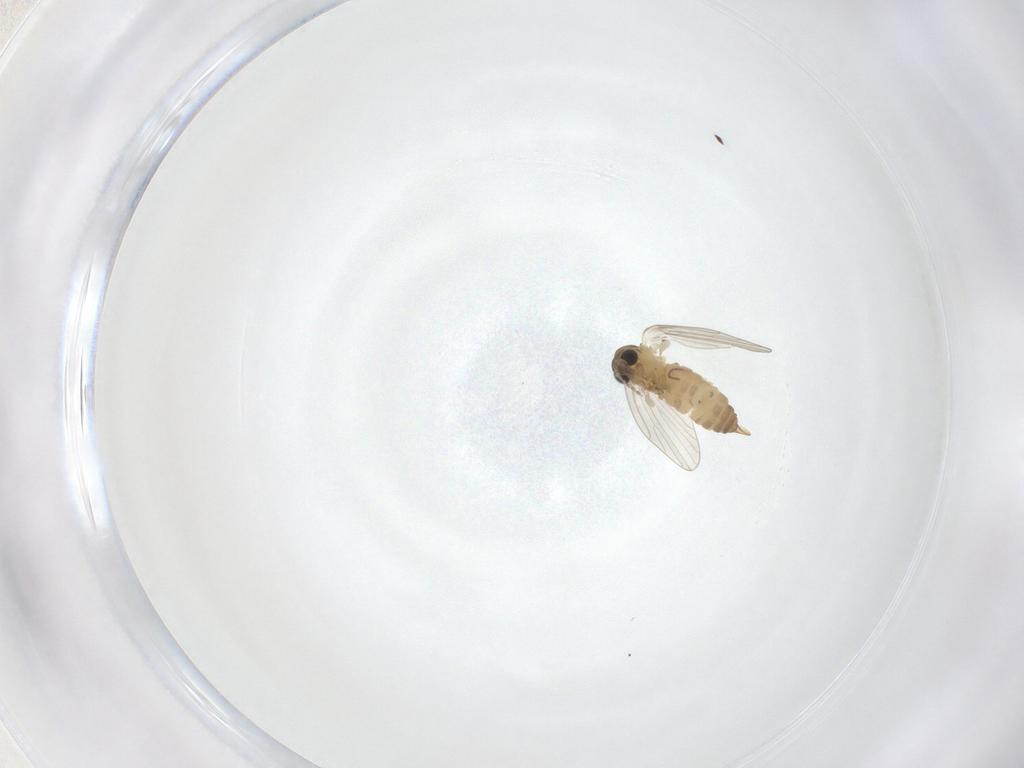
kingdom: Animalia
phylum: Arthropoda
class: Insecta
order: Diptera
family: Psychodidae
